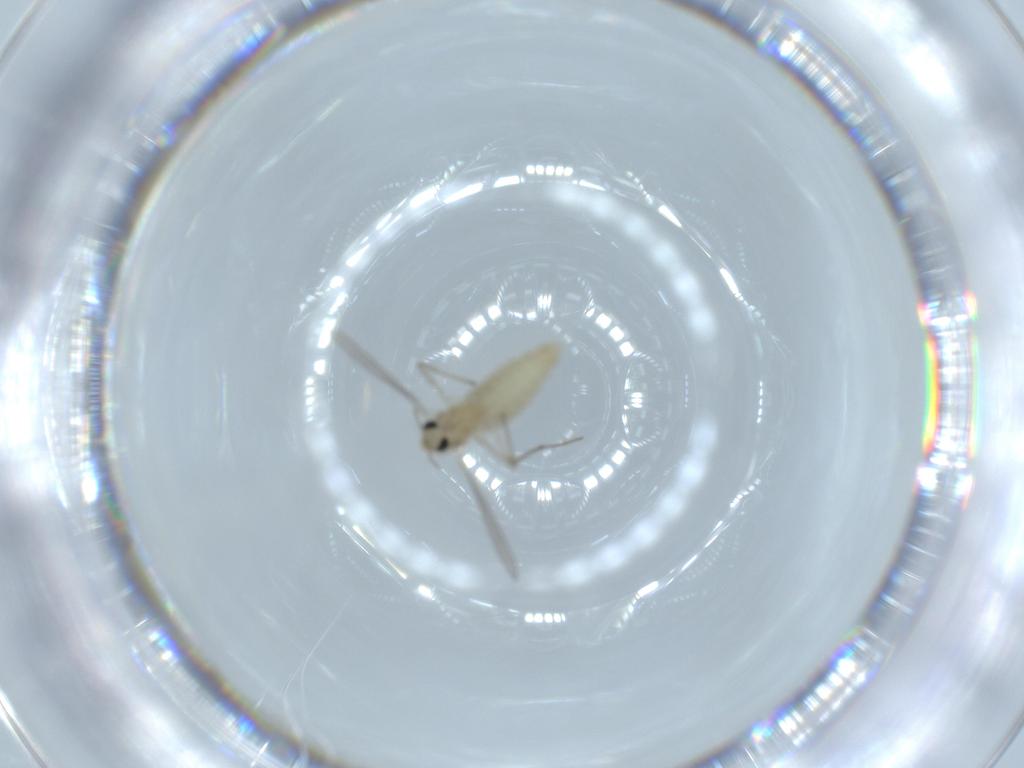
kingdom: Animalia
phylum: Arthropoda
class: Insecta
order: Diptera
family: Chironomidae
